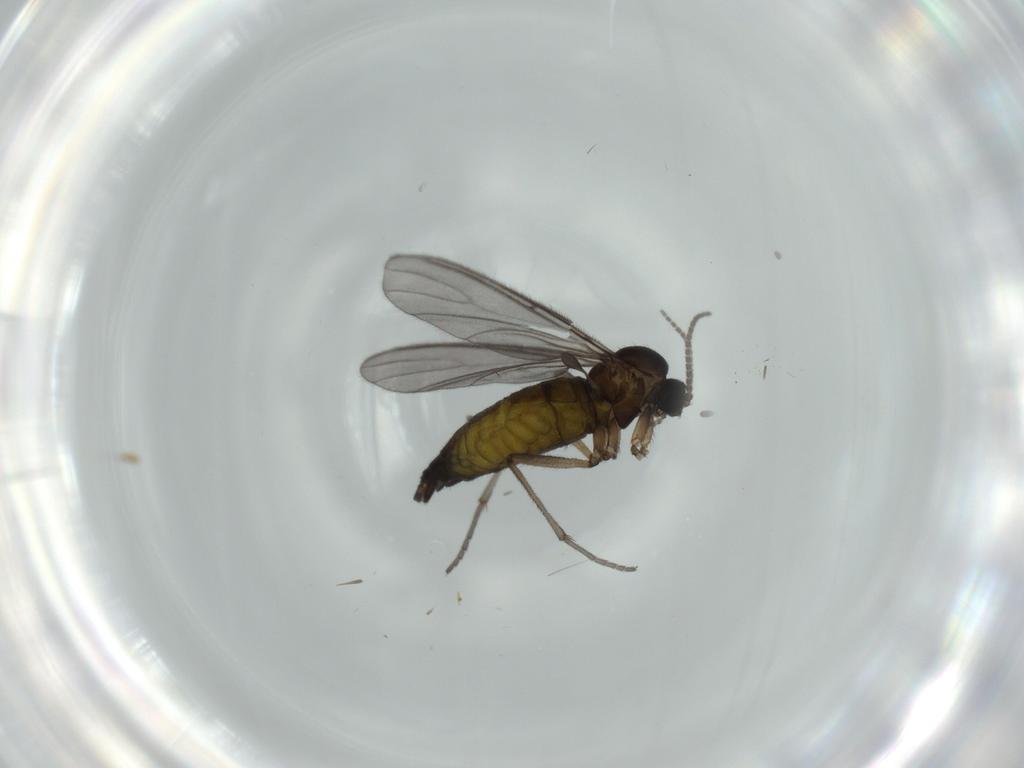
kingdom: Animalia
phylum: Arthropoda
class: Insecta
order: Diptera
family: Sciaridae
